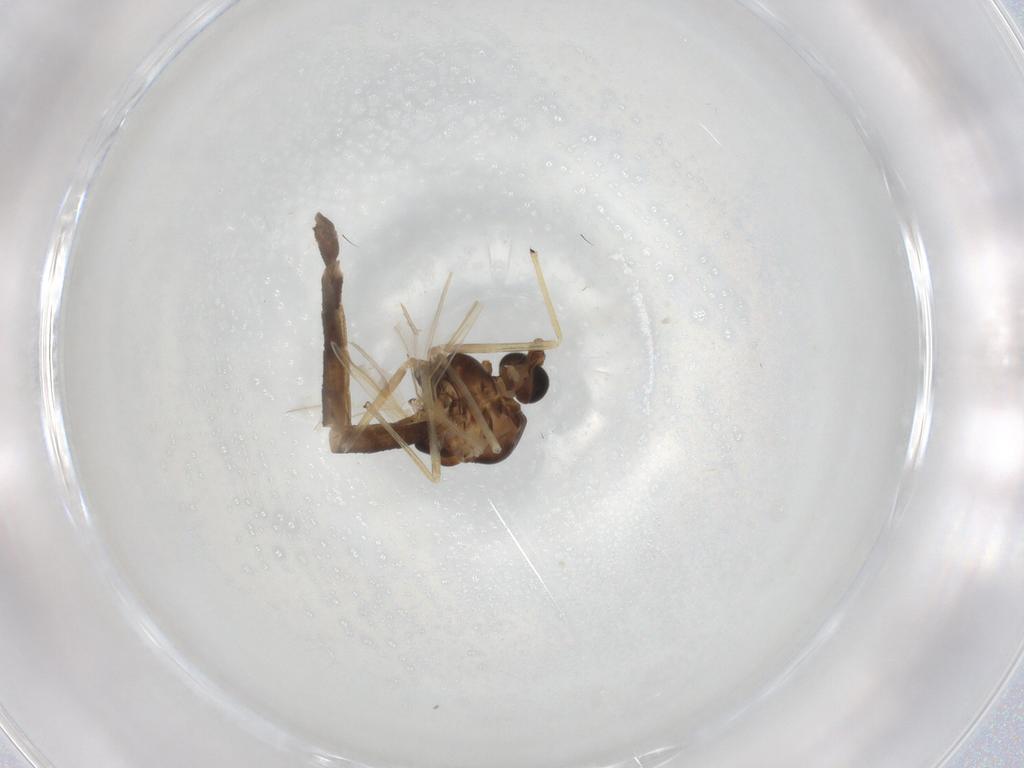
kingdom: Animalia
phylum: Arthropoda
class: Insecta
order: Diptera
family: Chironomidae
